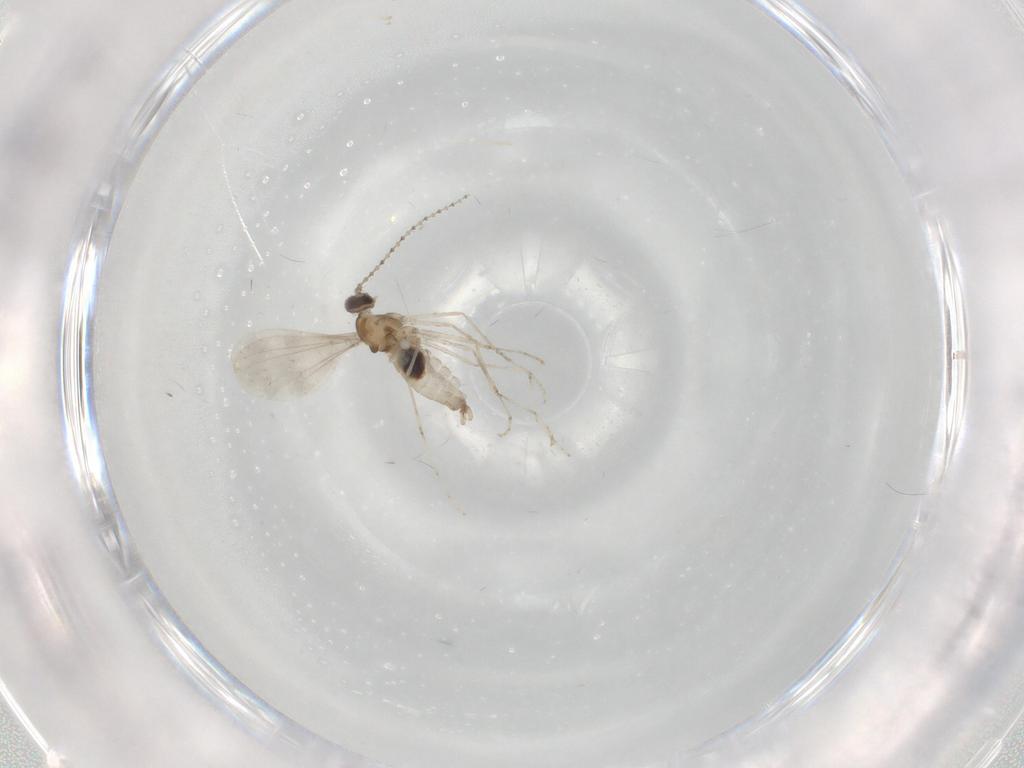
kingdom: Animalia
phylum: Arthropoda
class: Insecta
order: Diptera
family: Cecidomyiidae
